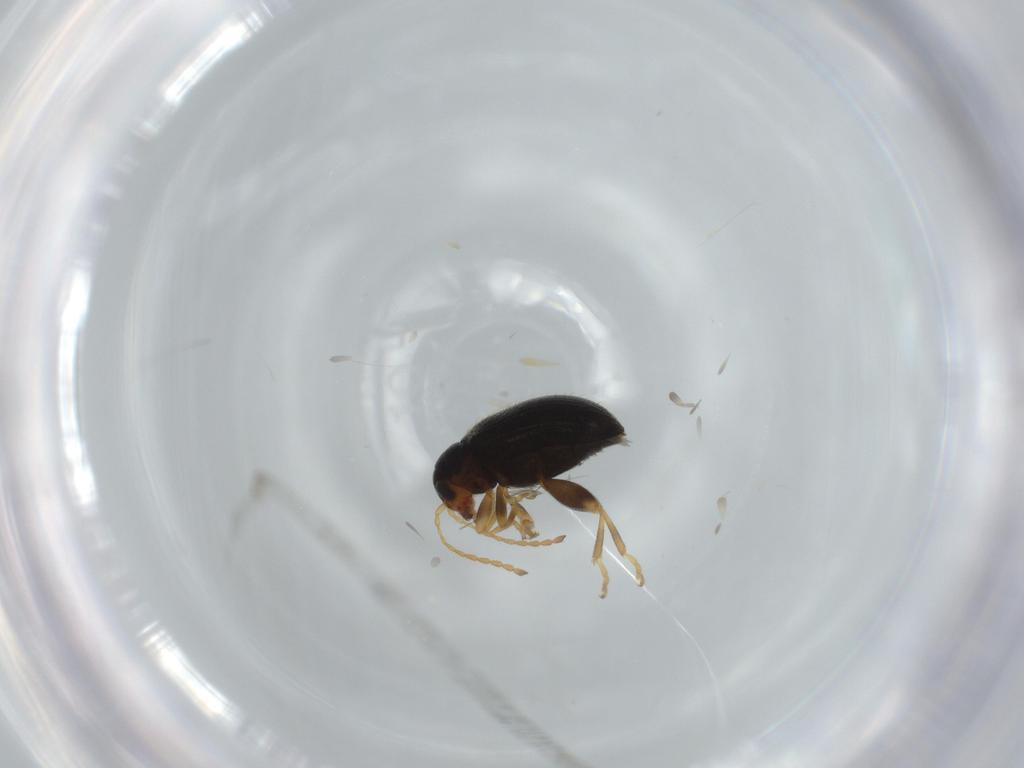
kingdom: Animalia
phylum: Arthropoda
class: Insecta
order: Coleoptera
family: Chrysomelidae
